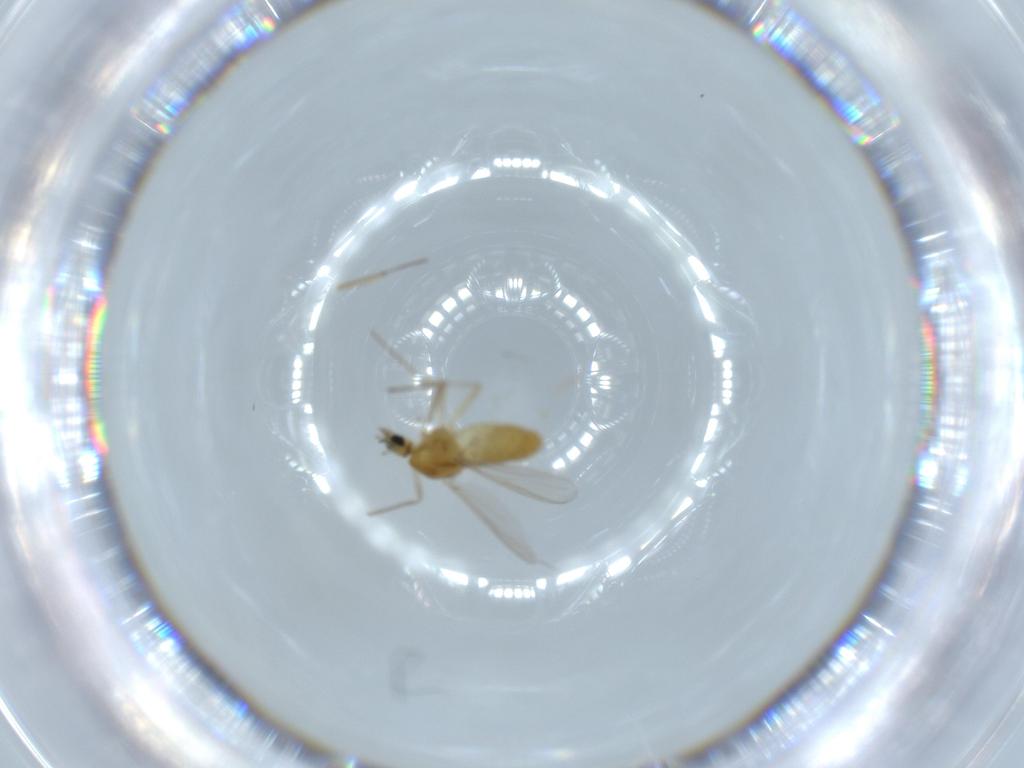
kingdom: Animalia
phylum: Arthropoda
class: Insecta
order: Diptera
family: Chironomidae
